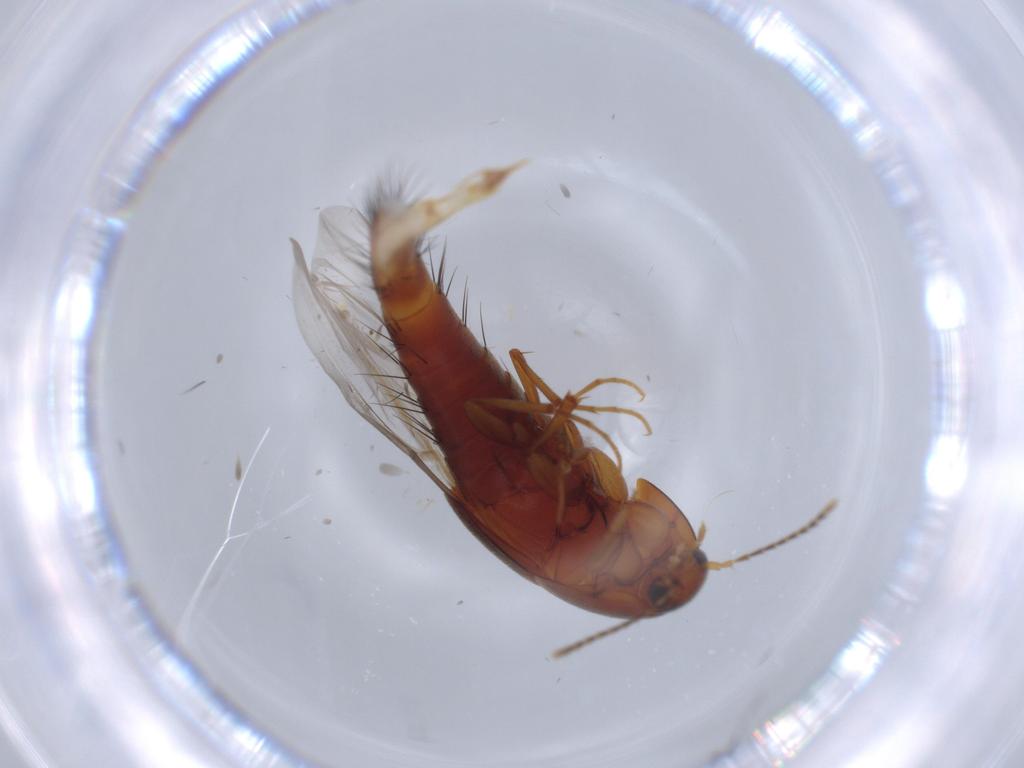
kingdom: Animalia
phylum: Arthropoda
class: Insecta
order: Coleoptera
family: Staphylinidae
